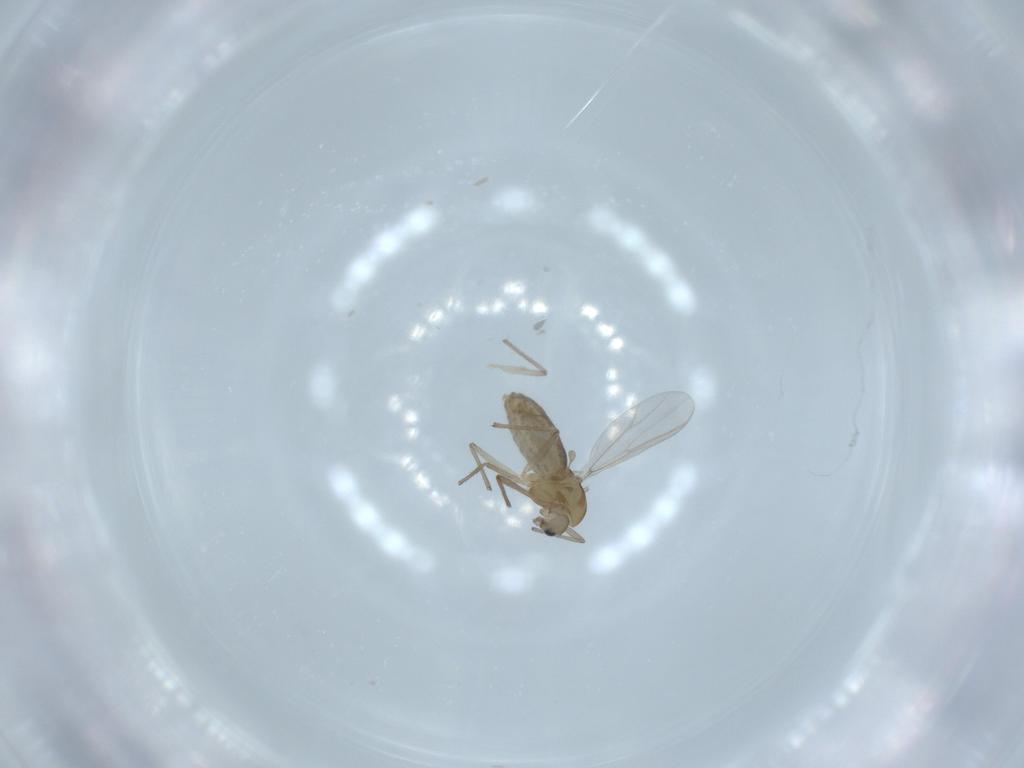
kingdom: Animalia
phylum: Arthropoda
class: Insecta
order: Diptera
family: Chironomidae
